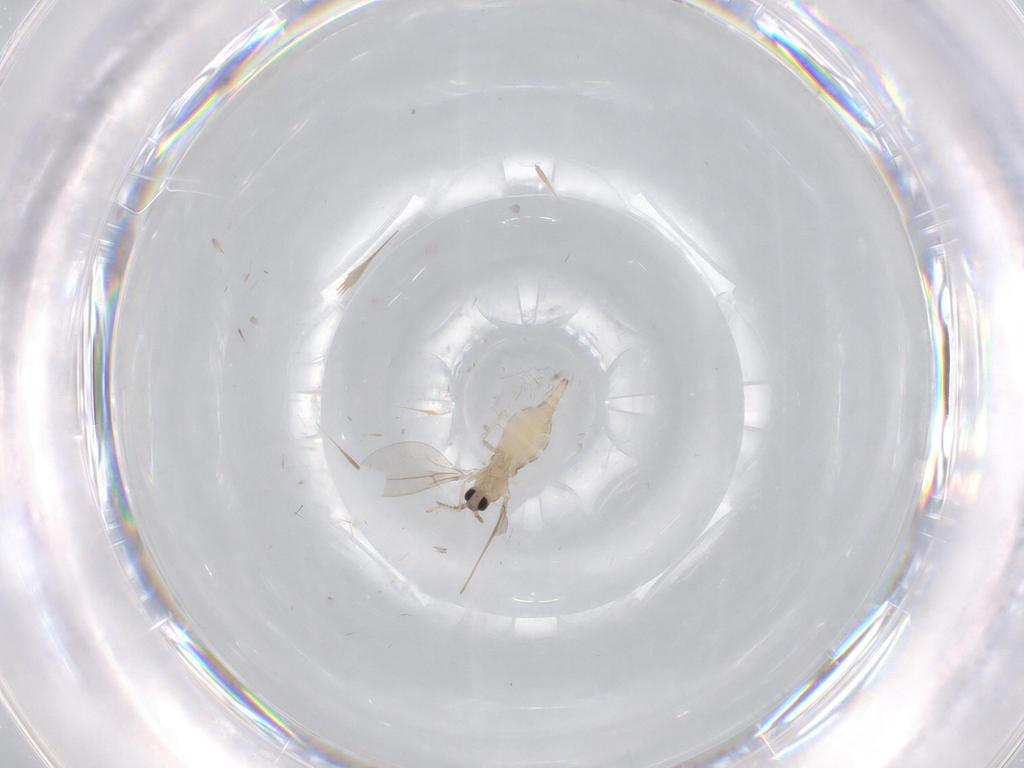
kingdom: Animalia
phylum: Arthropoda
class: Insecta
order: Diptera
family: Cecidomyiidae
